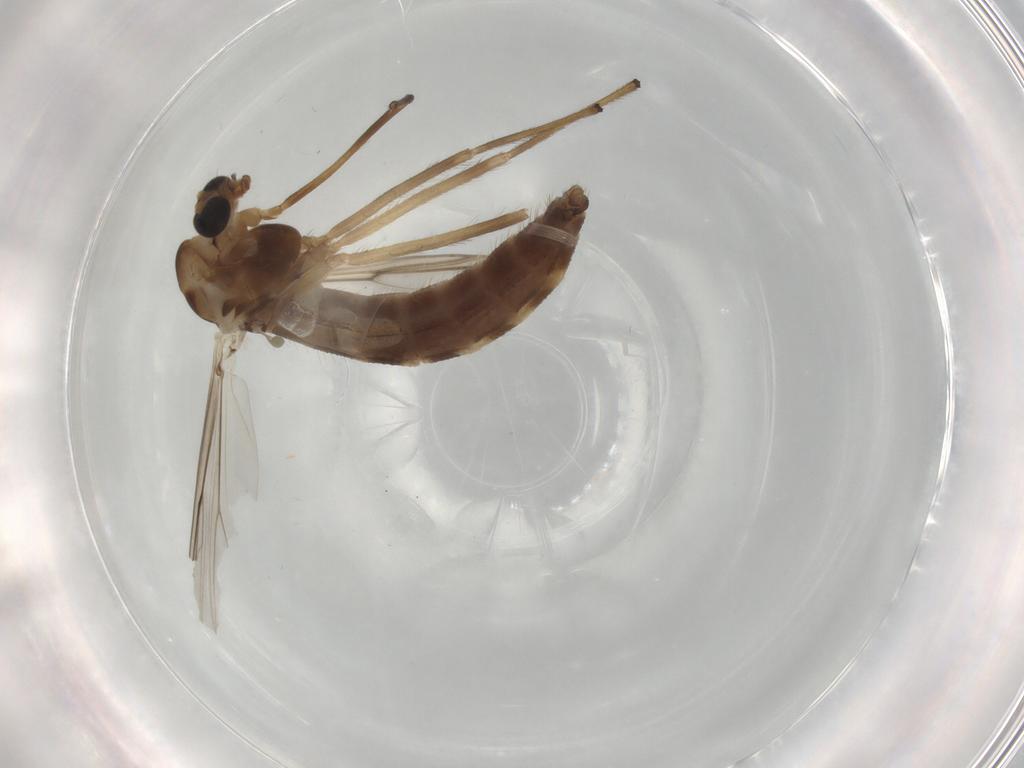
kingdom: Animalia
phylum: Arthropoda
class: Insecta
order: Diptera
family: Chironomidae
